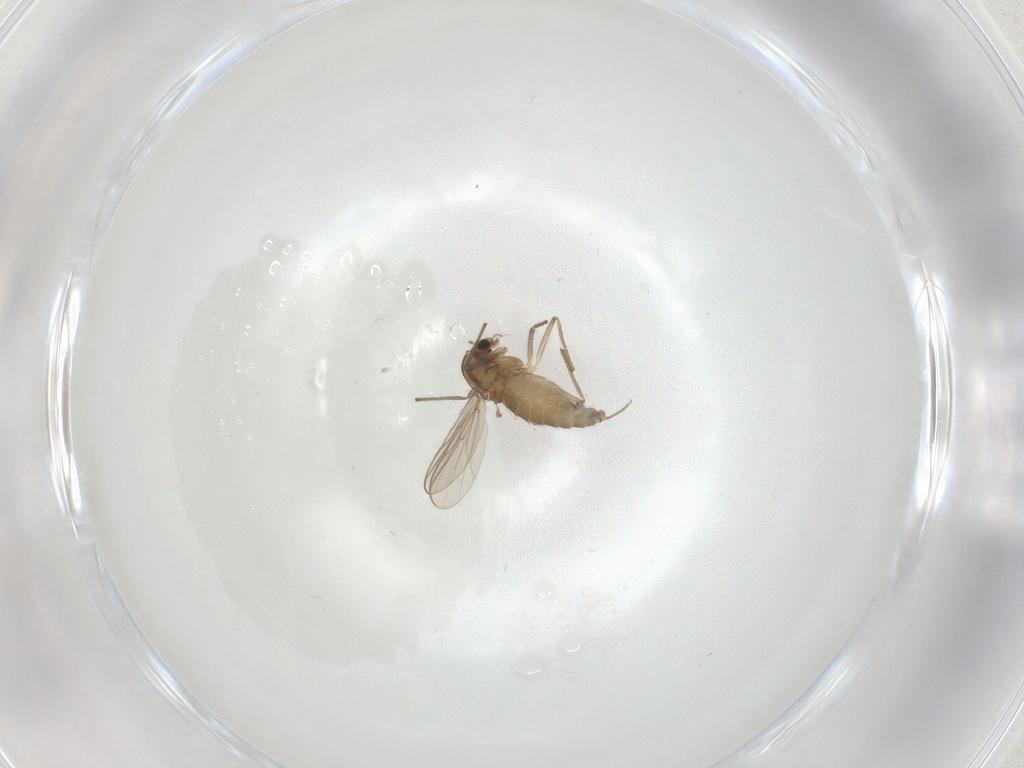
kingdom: Animalia
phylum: Arthropoda
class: Insecta
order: Diptera
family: Chironomidae
